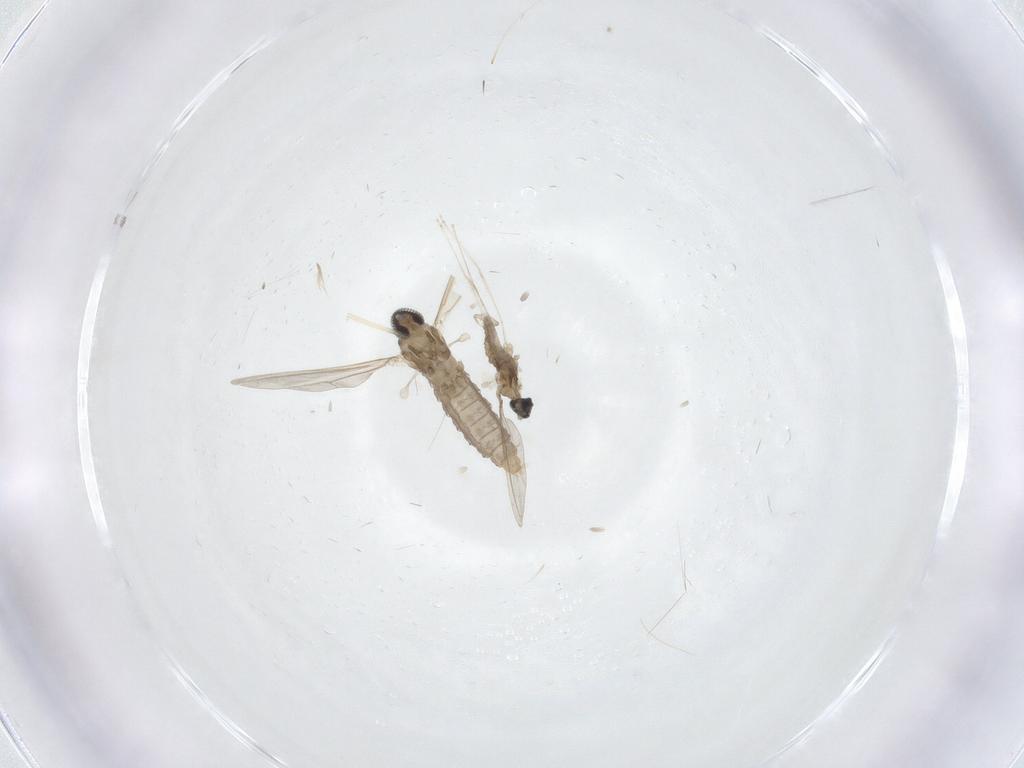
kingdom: Animalia
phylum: Arthropoda
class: Insecta
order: Diptera
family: Cecidomyiidae
